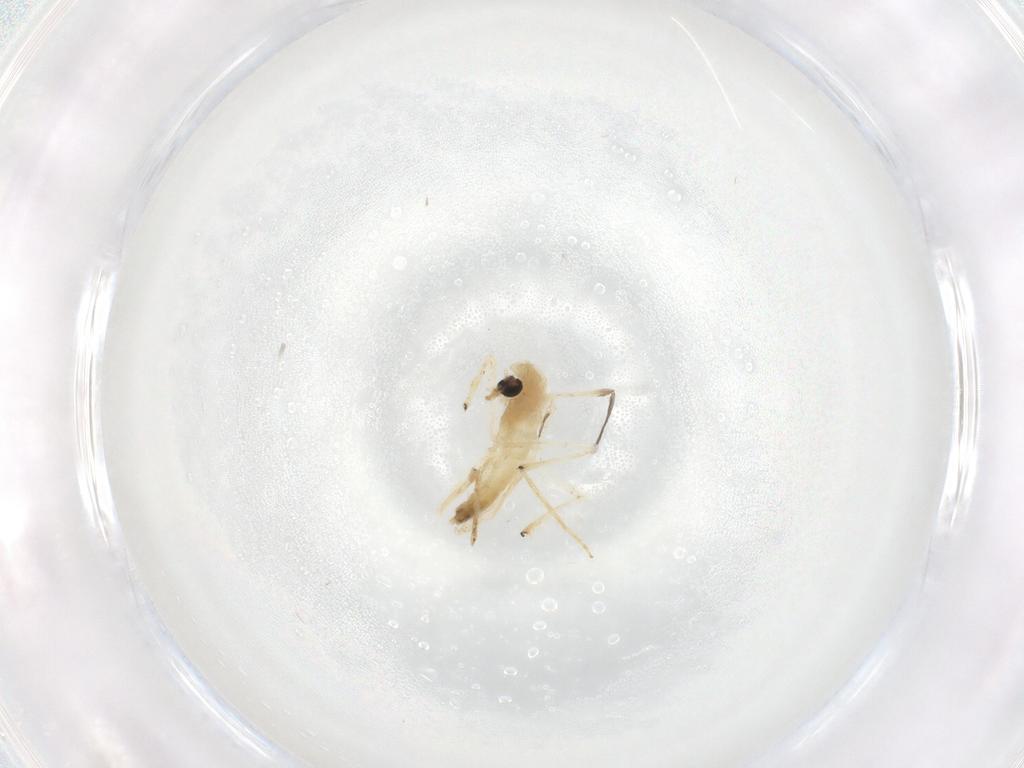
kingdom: Animalia
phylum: Arthropoda
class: Insecta
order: Diptera
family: Chironomidae
